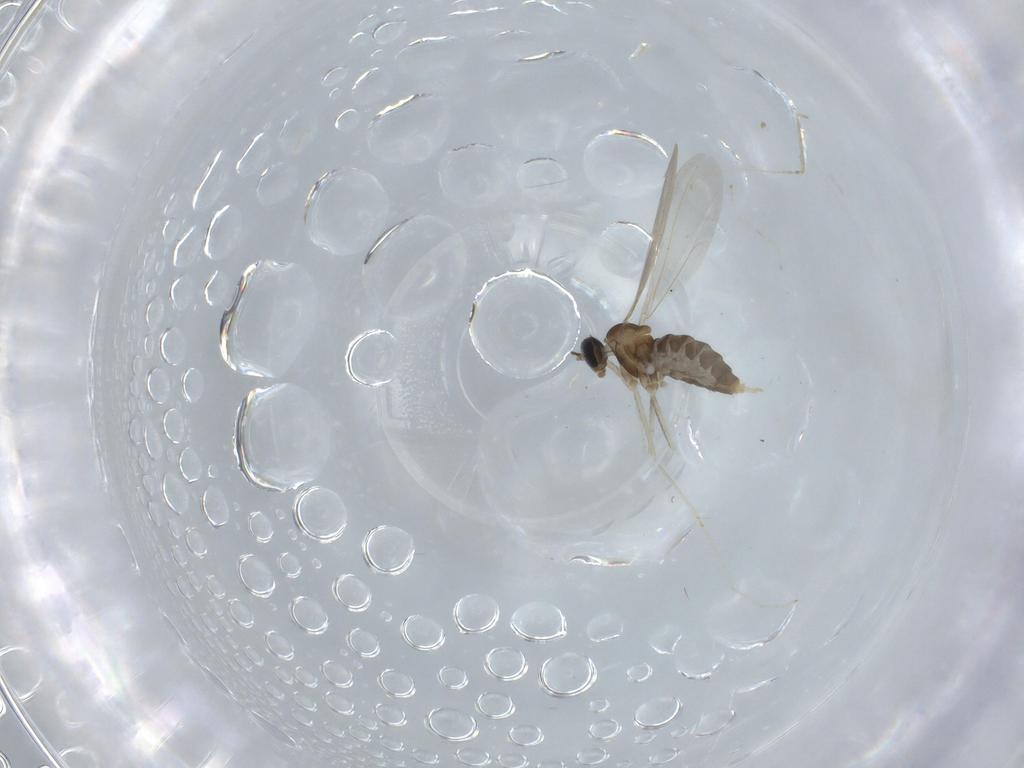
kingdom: Animalia
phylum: Arthropoda
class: Insecta
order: Diptera
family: Cecidomyiidae
